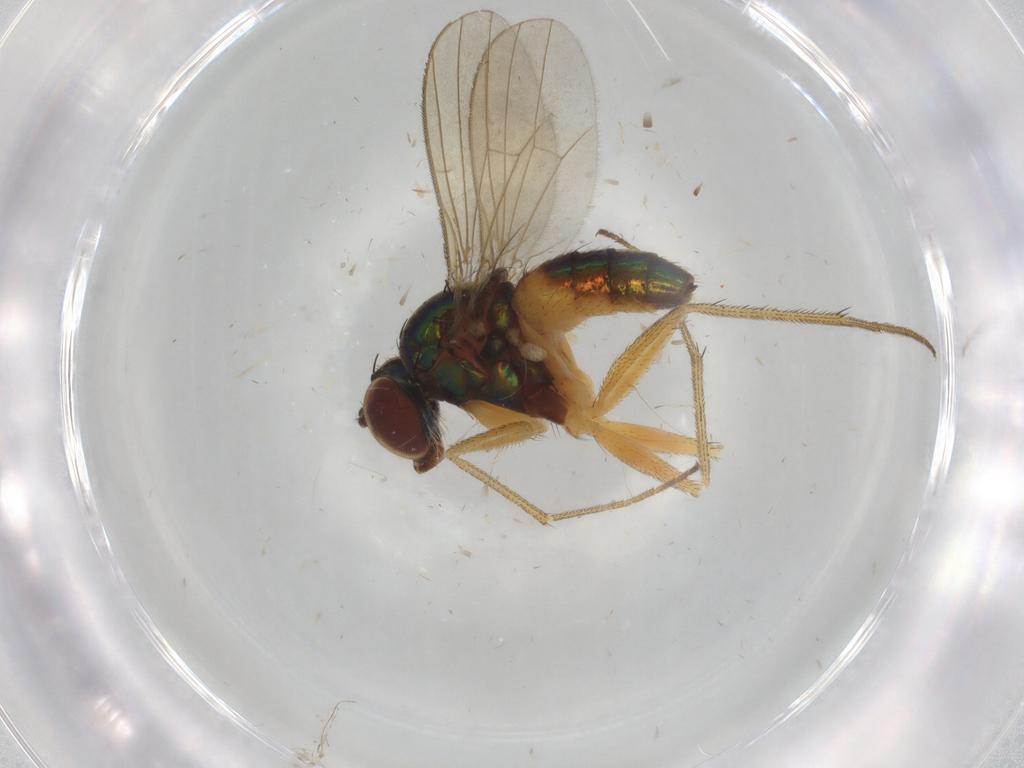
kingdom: Animalia
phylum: Arthropoda
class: Insecta
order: Diptera
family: Dolichopodidae
